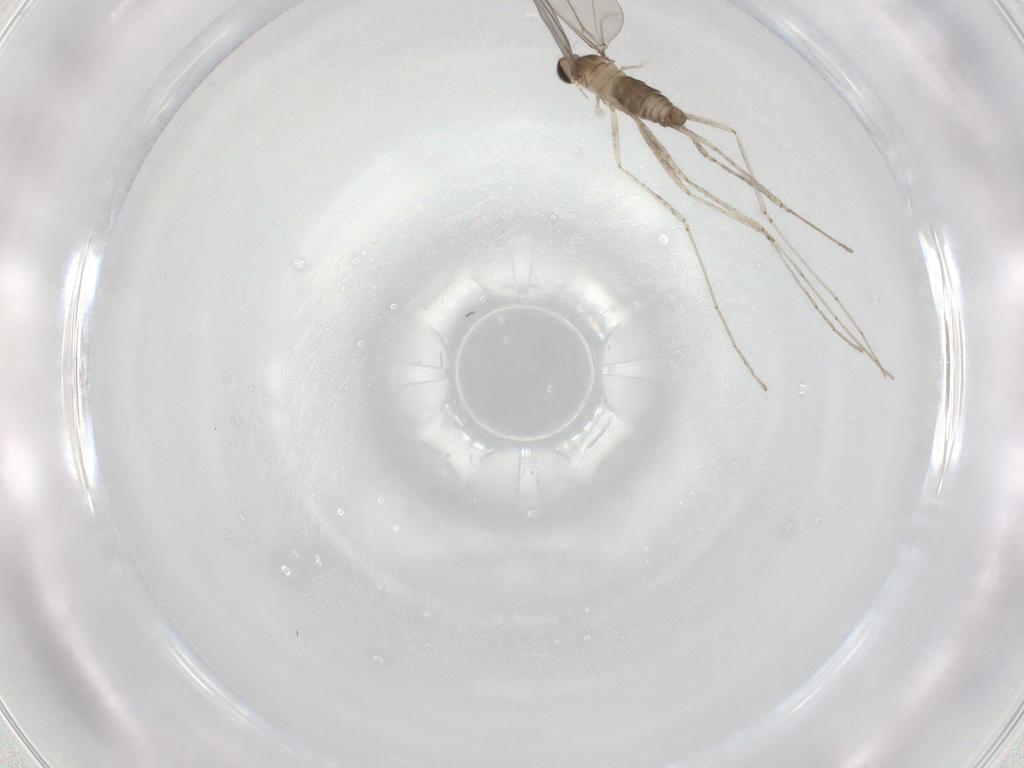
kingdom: Animalia
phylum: Arthropoda
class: Insecta
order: Diptera
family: Cecidomyiidae
